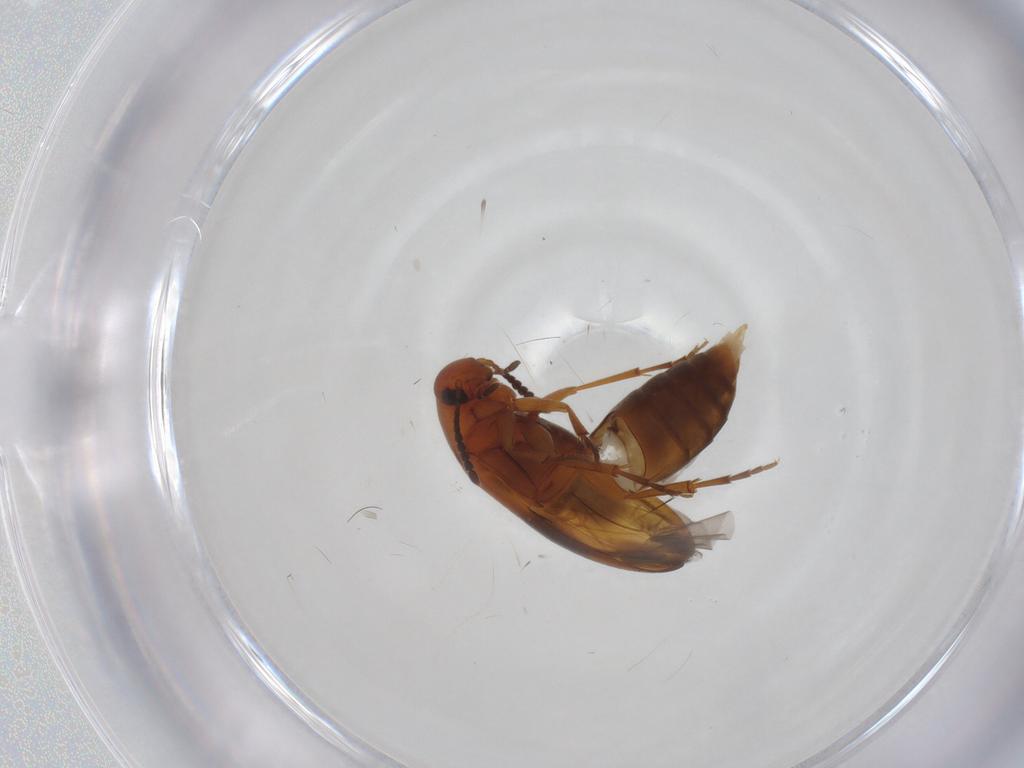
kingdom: Animalia
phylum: Arthropoda
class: Insecta
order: Coleoptera
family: Scraptiidae
